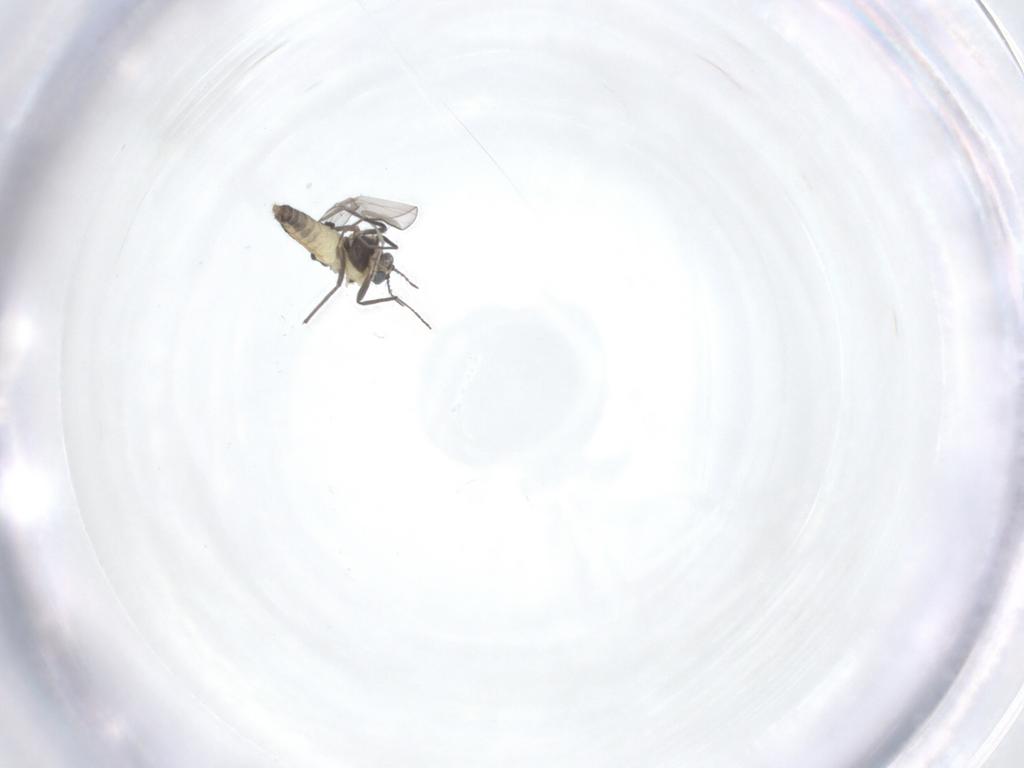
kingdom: Animalia
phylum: Arthropoda
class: Insecta
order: Diptera
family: Chironomidae
